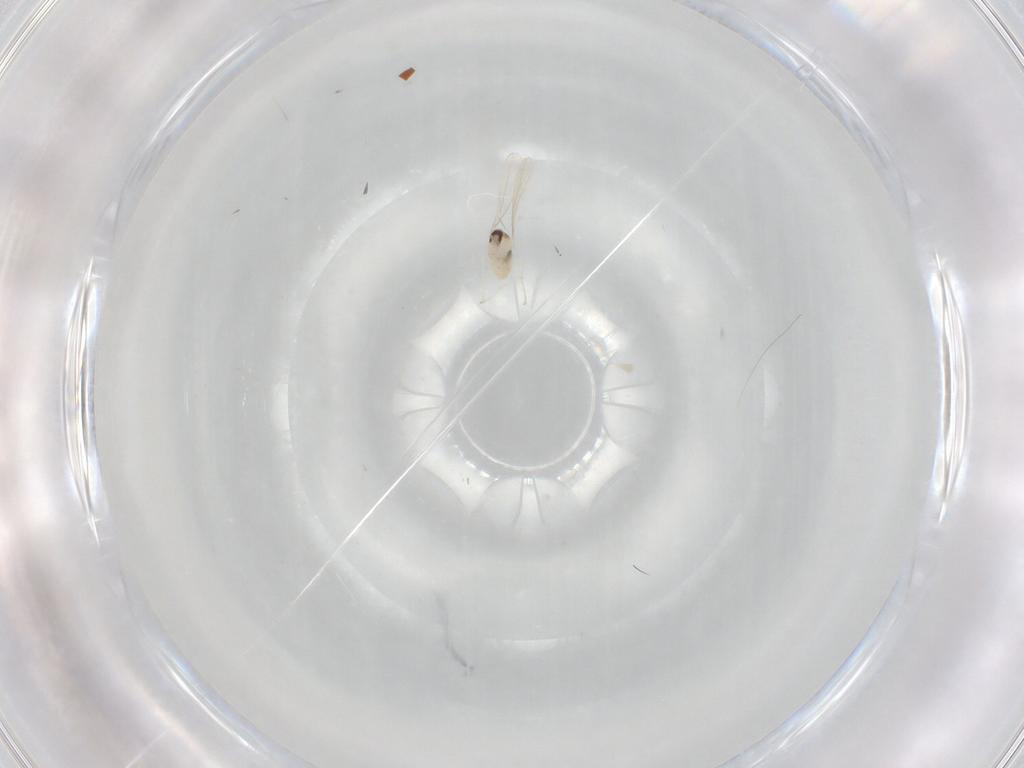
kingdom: Animalia
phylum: Arthropoda
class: Insecta
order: Diptera
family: Cecidomyiidae
